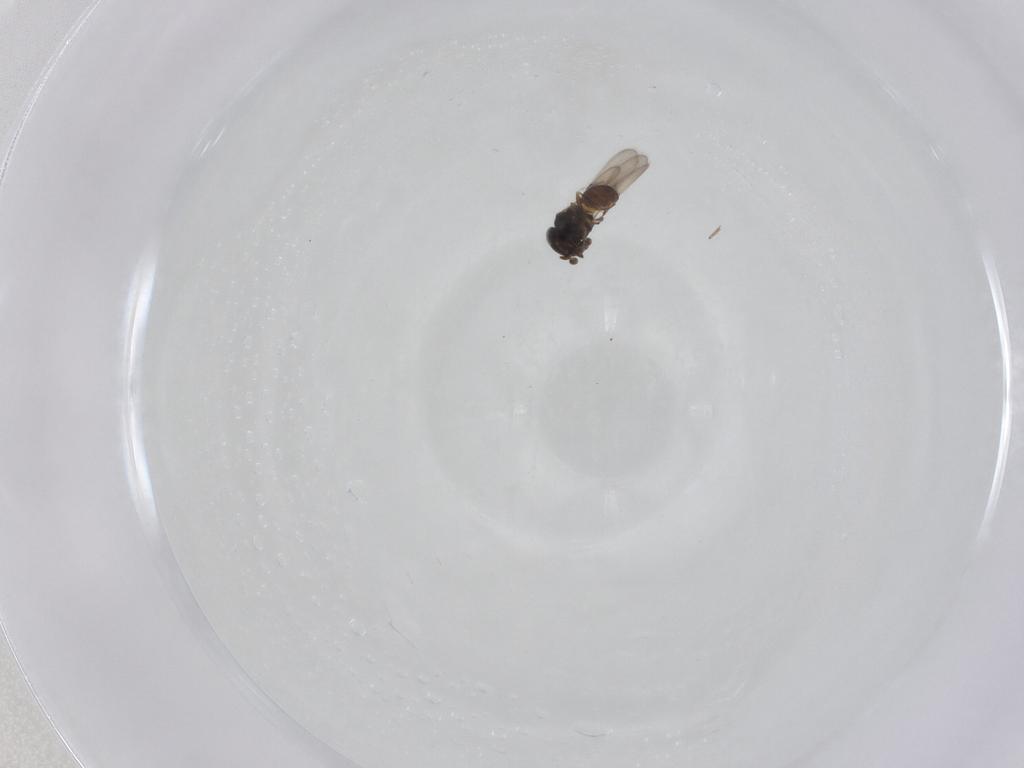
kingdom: Animalia
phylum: Arthropoda
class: Arachnida
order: Araneae
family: Pholcidae
